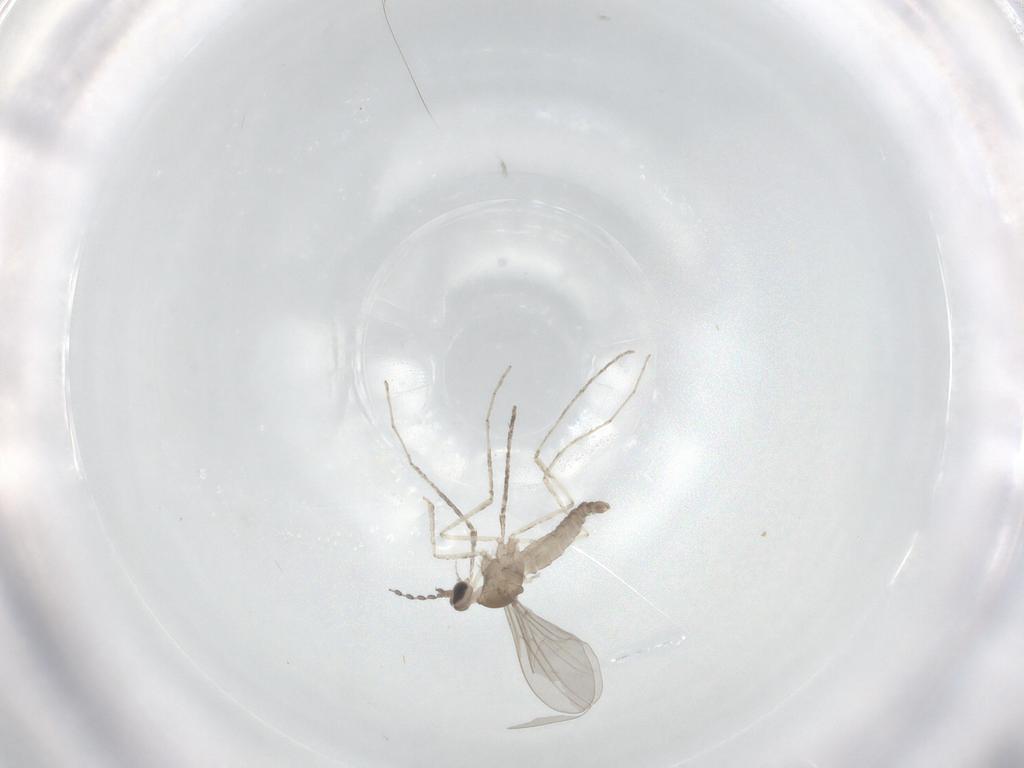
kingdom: Animalia
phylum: Arthropoda
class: Insecta
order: Diptera
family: Cecidomyiidae
